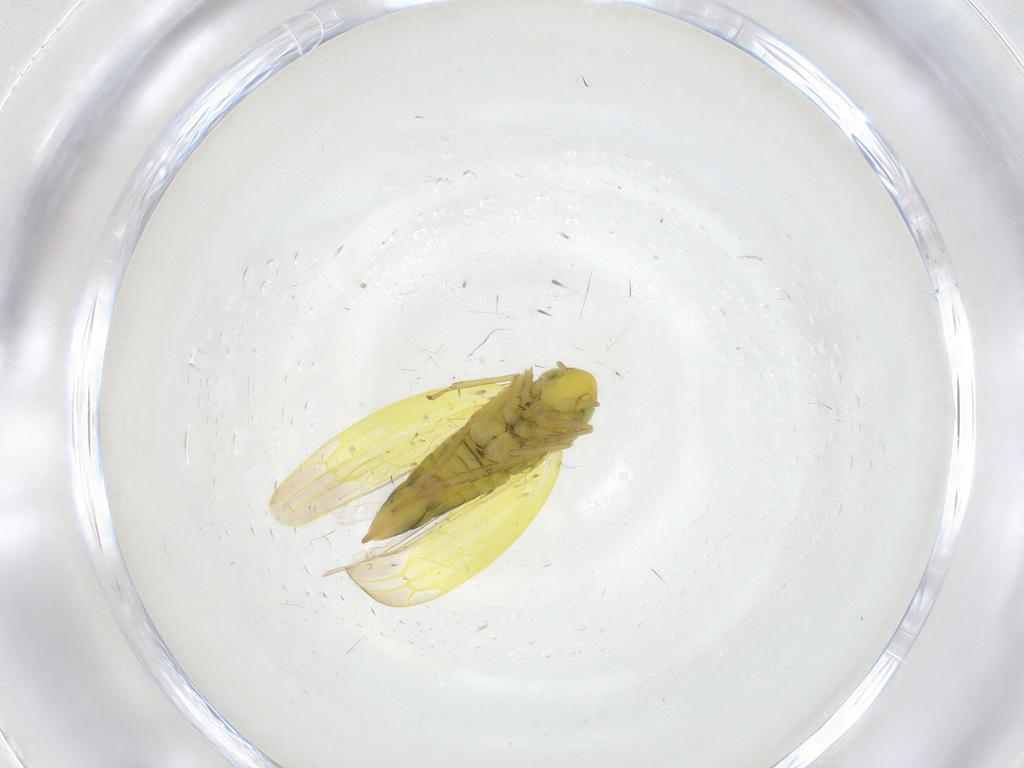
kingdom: Animalia
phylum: Arthropoda
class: Insecta
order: Hemiptera
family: Cicadellidae
